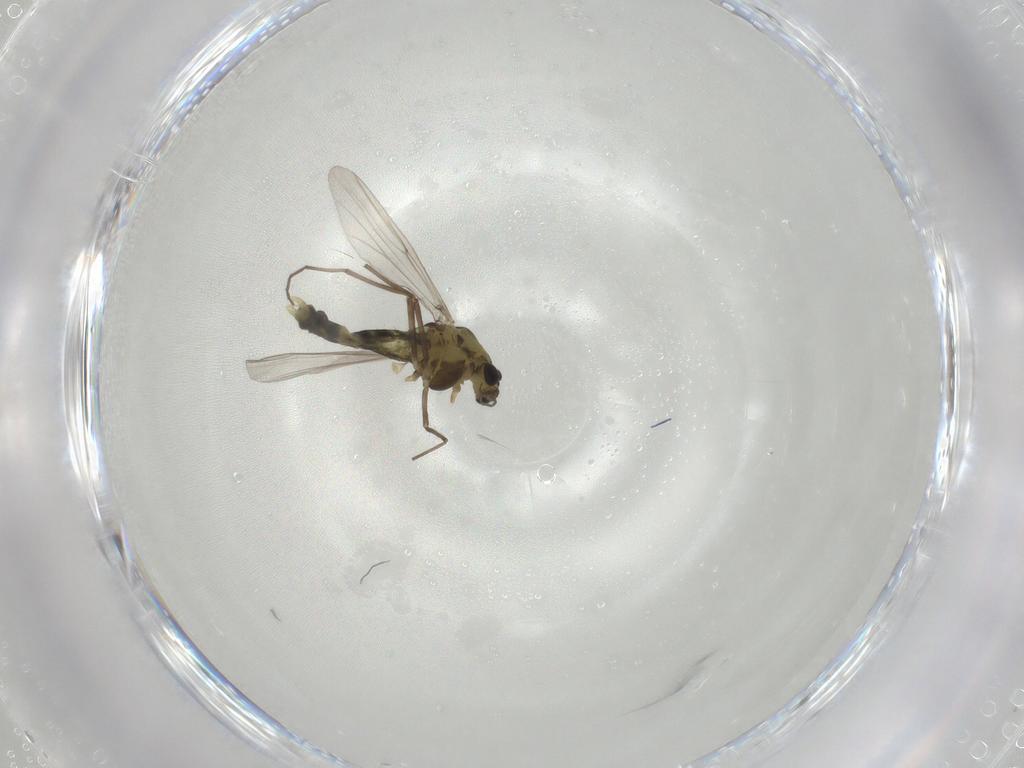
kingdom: Animalia
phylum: Arthropoda
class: Insecta
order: Diptera
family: Chironomidae
